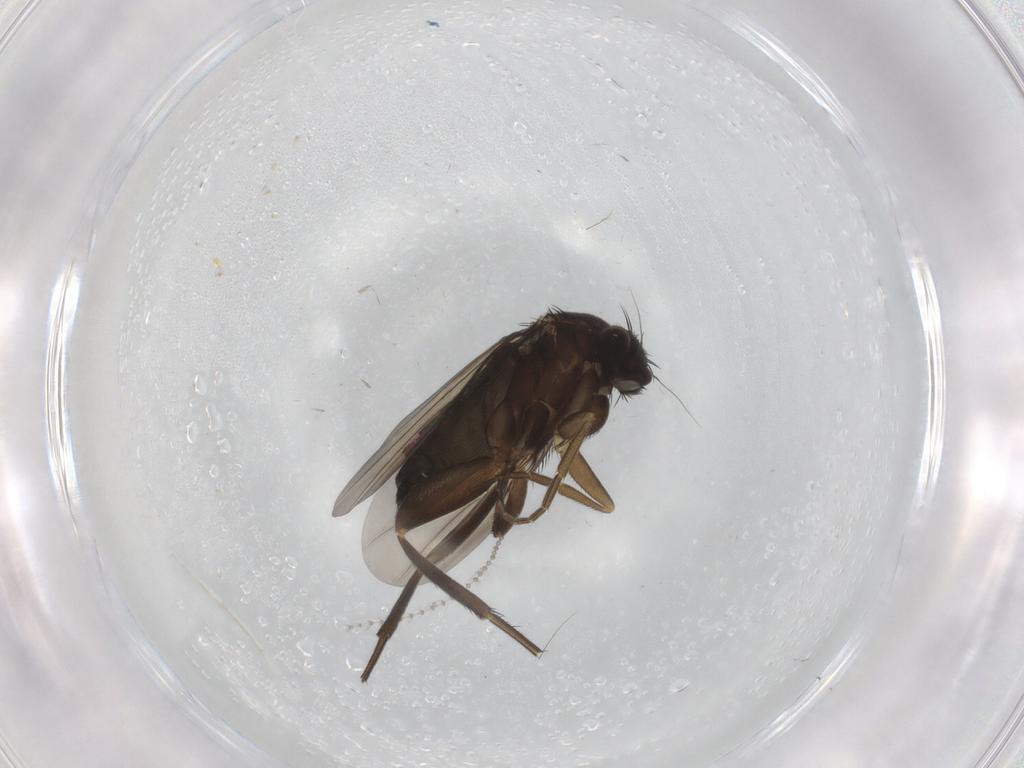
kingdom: Animalia
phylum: Arthropoda
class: Insecta
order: Diptera
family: Phoridae
